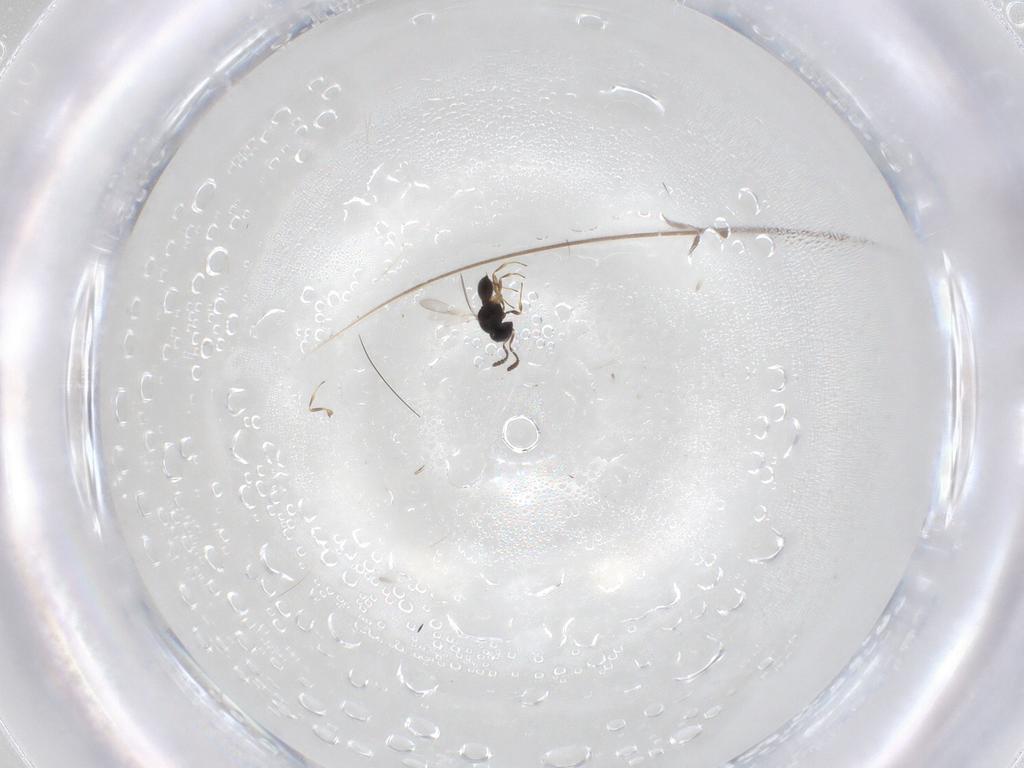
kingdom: Animalia
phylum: Arthropoda
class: Insecta
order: Hymenoptera
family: Scelionidae
